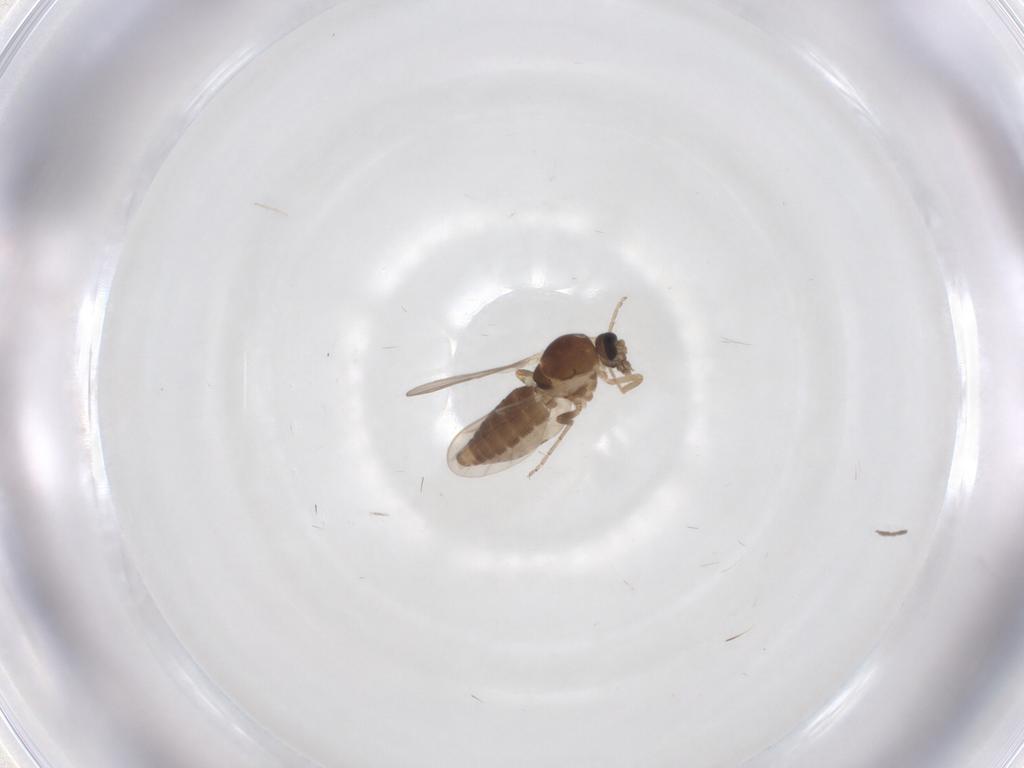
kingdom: Animalia
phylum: Arthropoda
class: Insecta
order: Diptera
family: Ceratopogonidae
